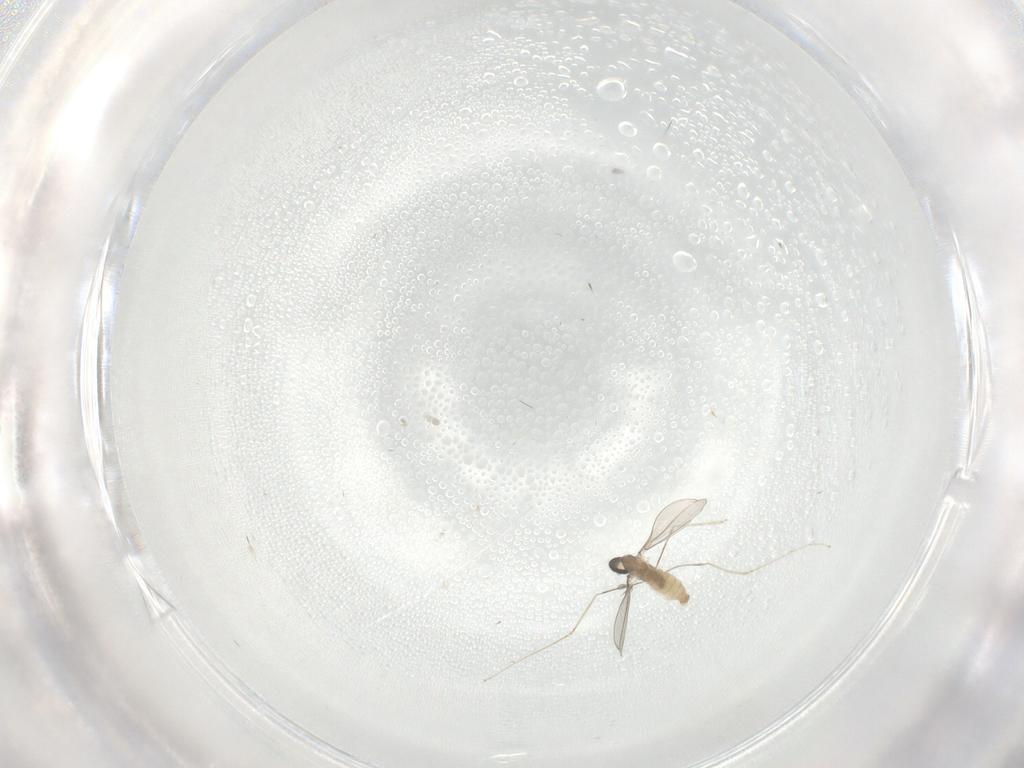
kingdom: Animalia
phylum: Arthropoda
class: Insecta
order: Diptera
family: Cecidomyiidae
